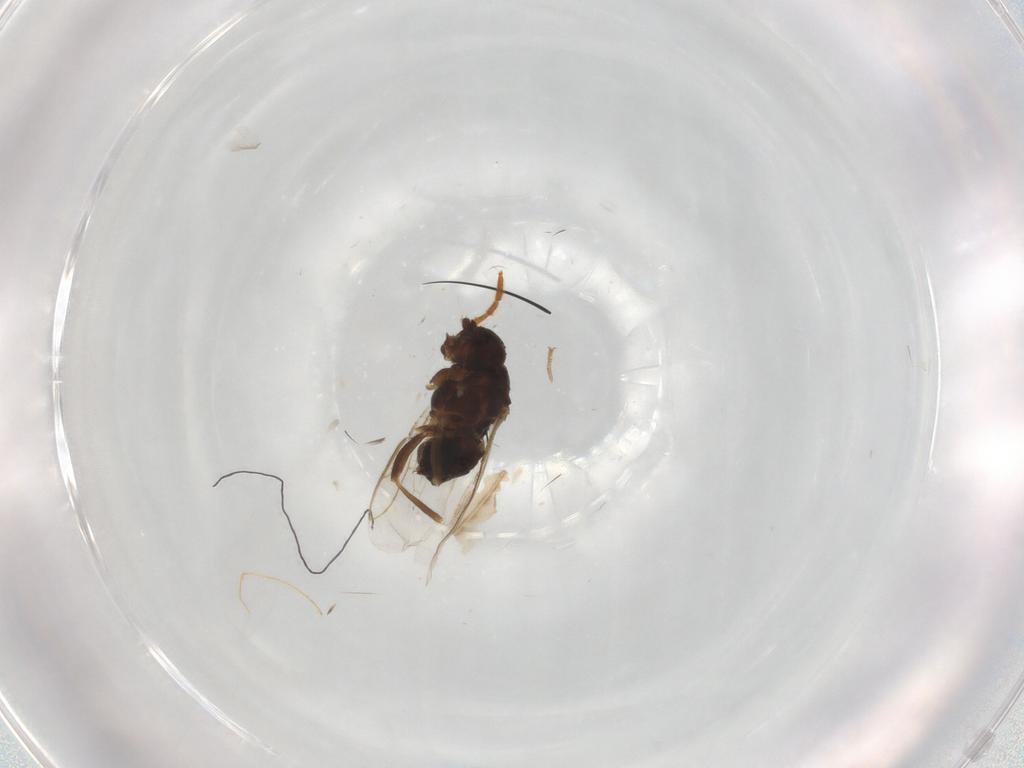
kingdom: Animalia
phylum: Arthropoda
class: Insecta
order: Diptera
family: Sphaeroceridae
